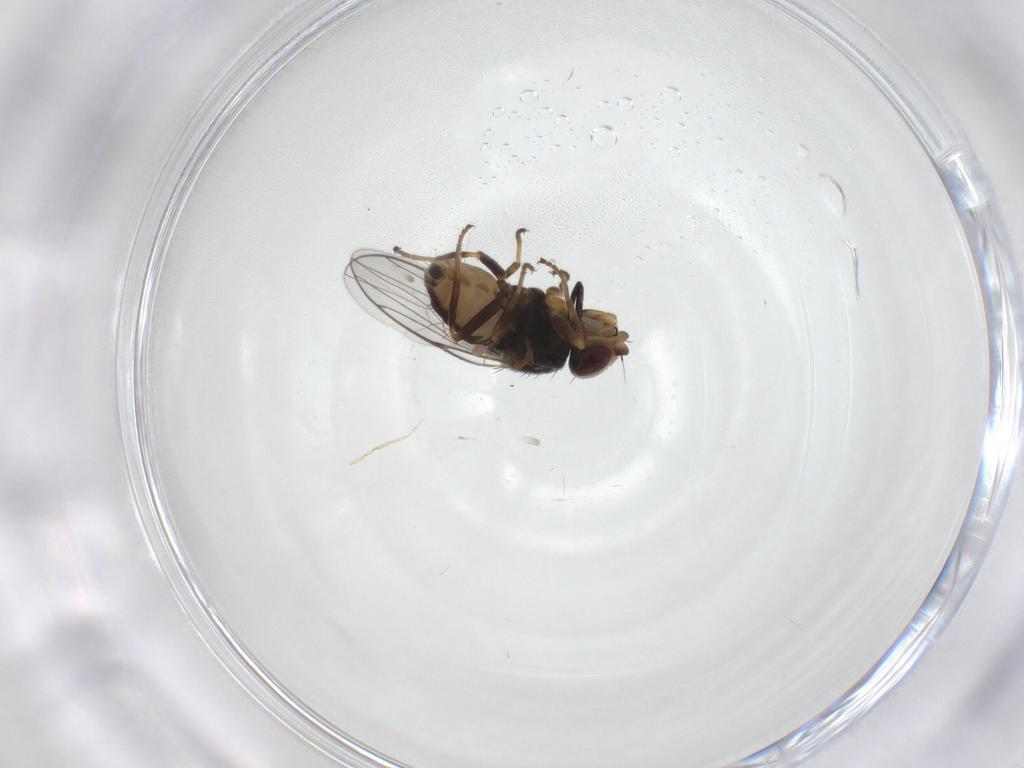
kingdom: Animalia
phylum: Arthropoda
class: Insecta
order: Diptera
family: Chloropidae
